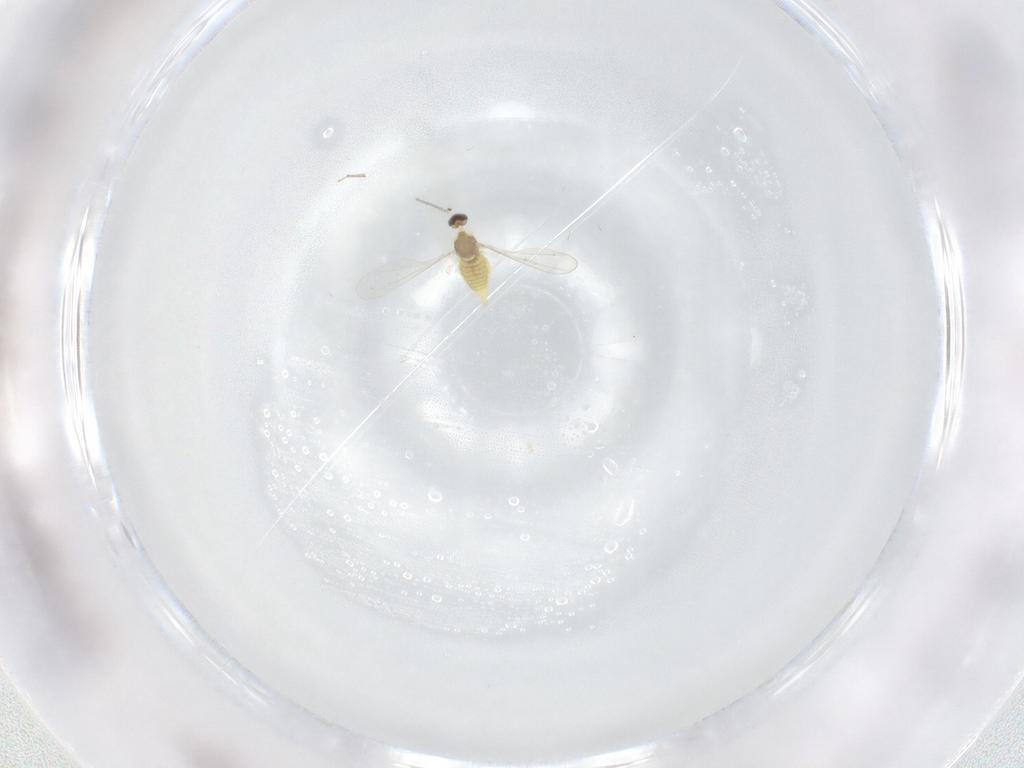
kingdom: Animalia
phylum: Arthropoda
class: Insecta
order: Diptera
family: Cecidomyiidae
